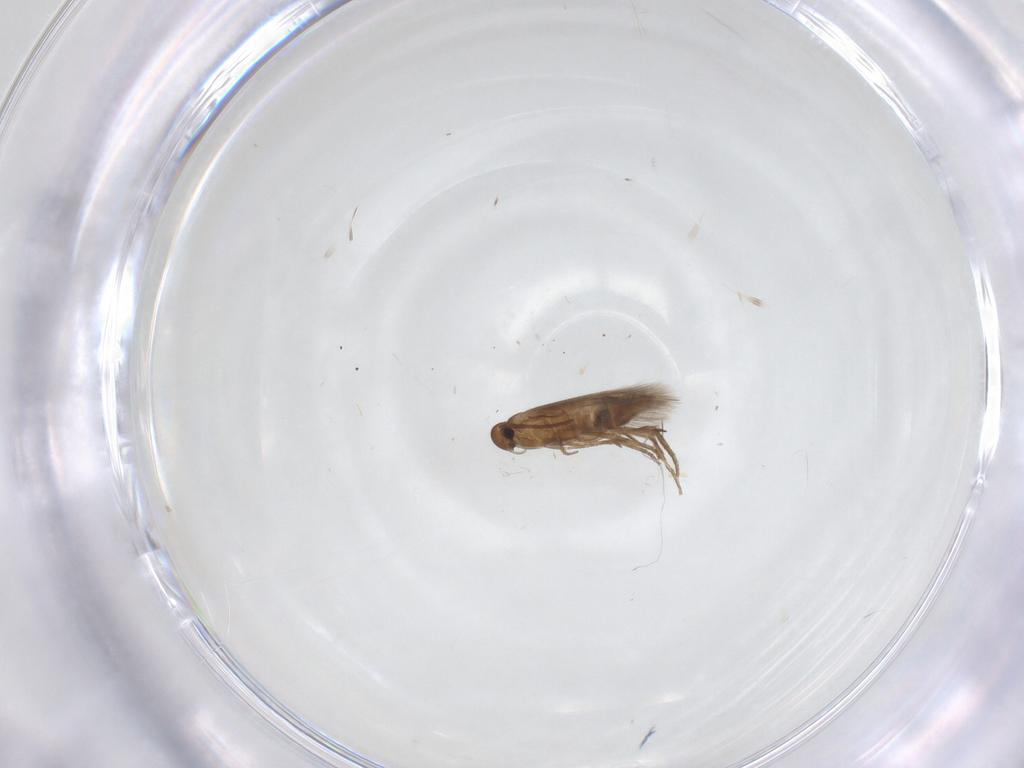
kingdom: Animalia
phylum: Arthropoda
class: Insecta
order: Lepidoptera
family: Heliozelidae
